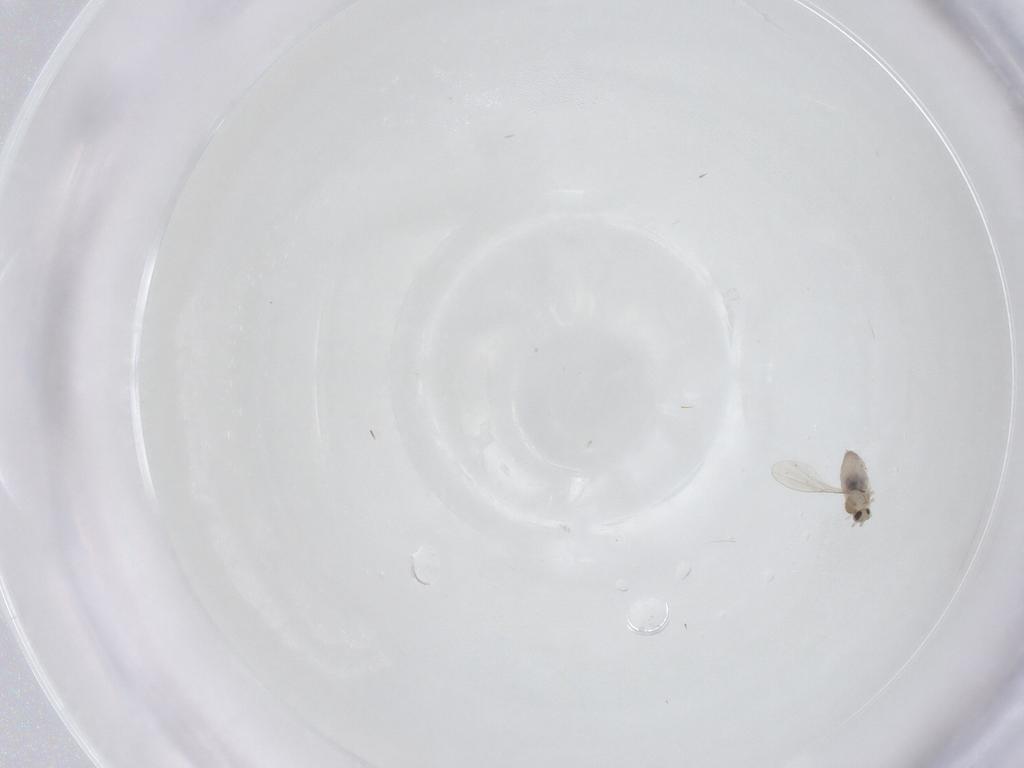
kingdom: Animalia
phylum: Arthropoda
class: Insecta
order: Diptera
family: Cecidomyiidae
